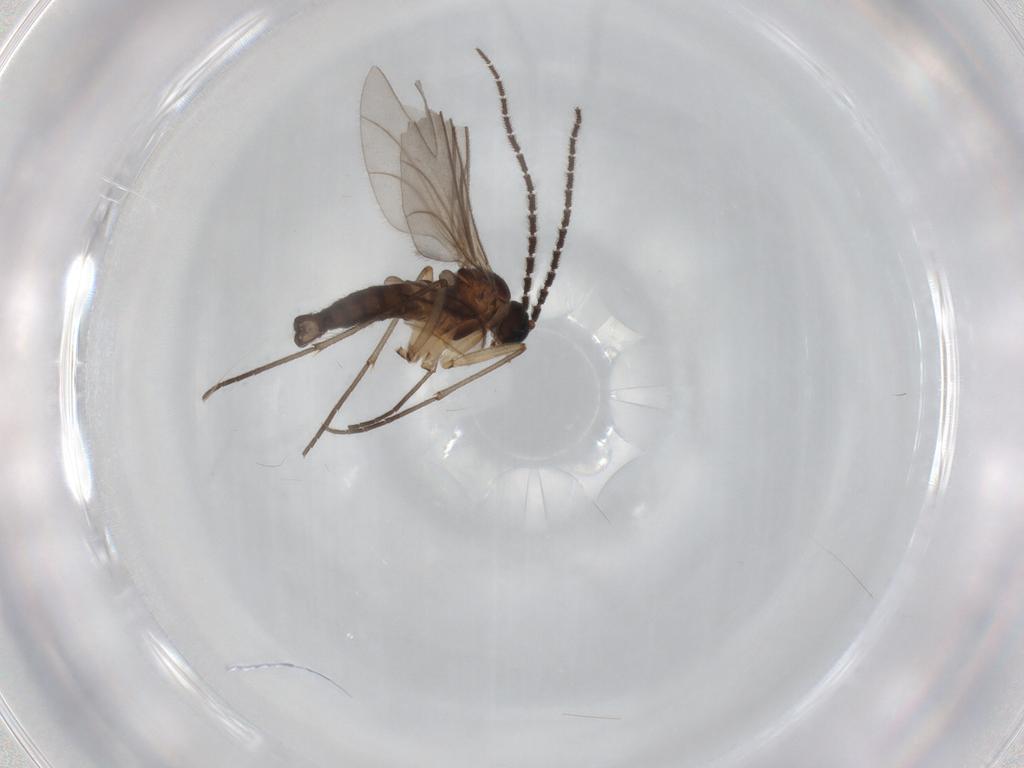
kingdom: Animalia
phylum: Arthropoda
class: Insecta
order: Diptera
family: Sciaridae
